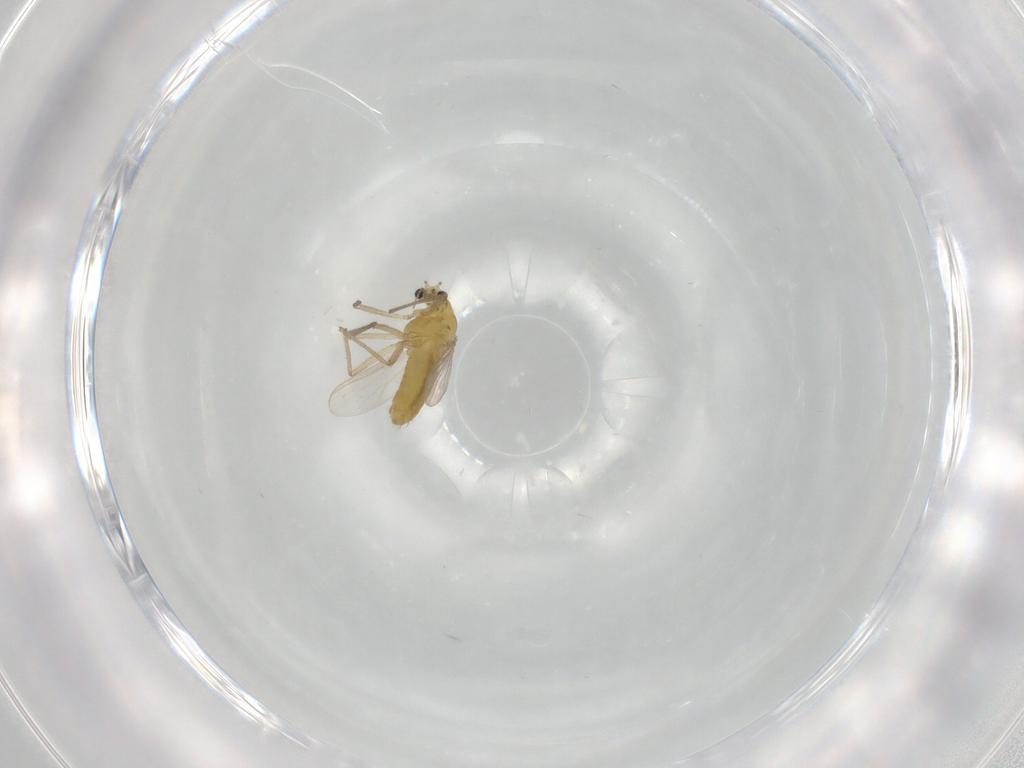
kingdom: Animalia
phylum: Arthropoda
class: Insecta
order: Diptera
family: Chironomidae
